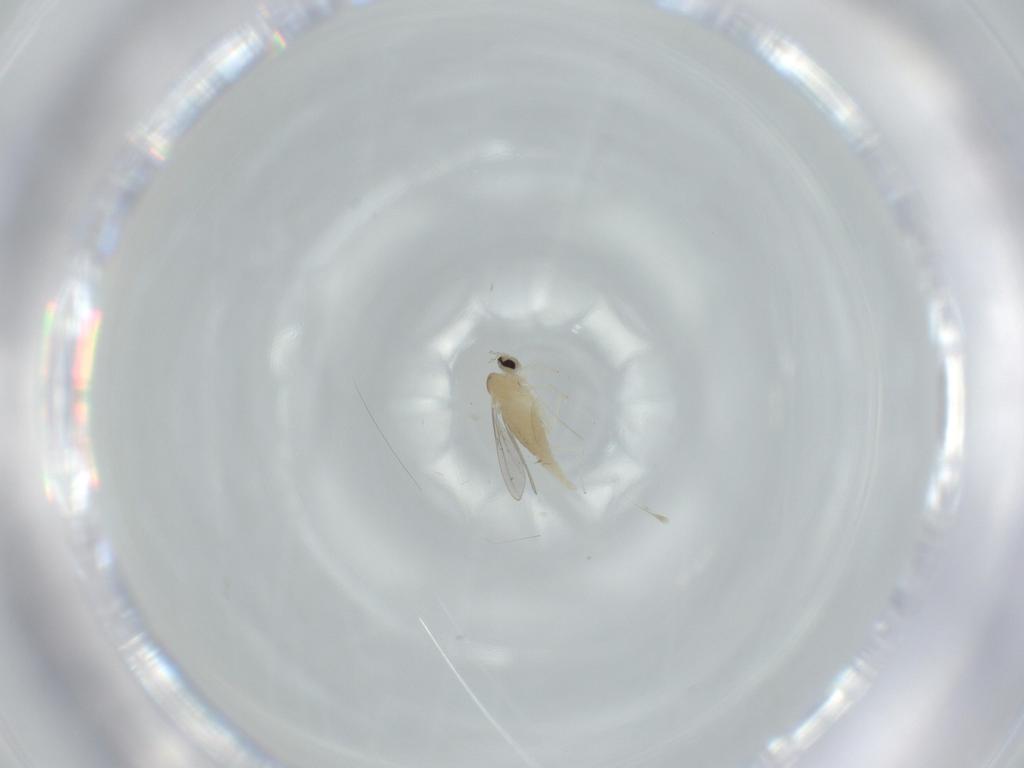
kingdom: Animalia
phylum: Arthropoda
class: Insecta
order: Diptera
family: Cecidomyiidae
